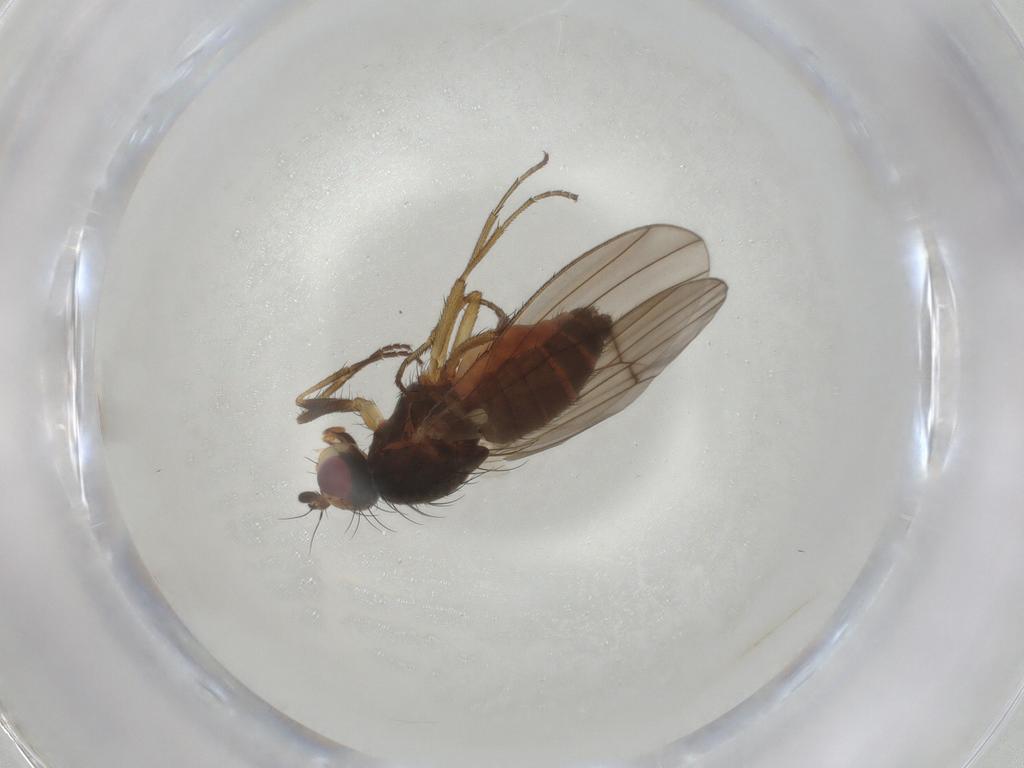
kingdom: Animalia
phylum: Arthropoda
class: Insecta
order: Diptera
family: Heleomyzidae
